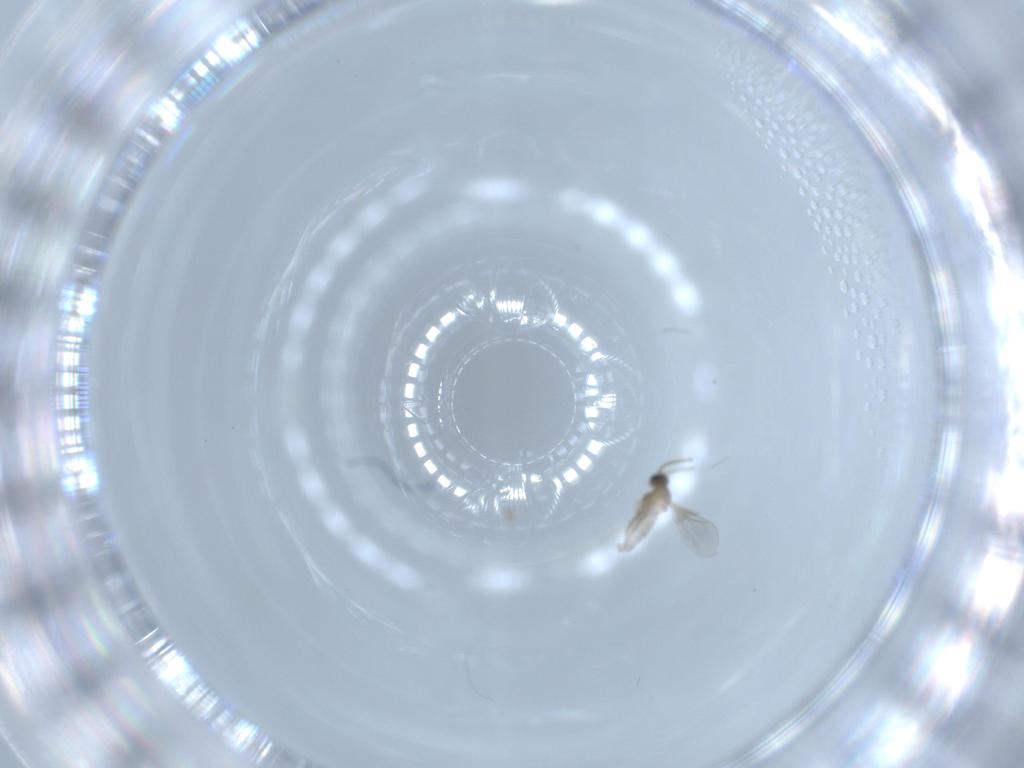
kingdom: Animalia
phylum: Arthropoda
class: Insecta
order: Diptera
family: Cecidomyiidae
